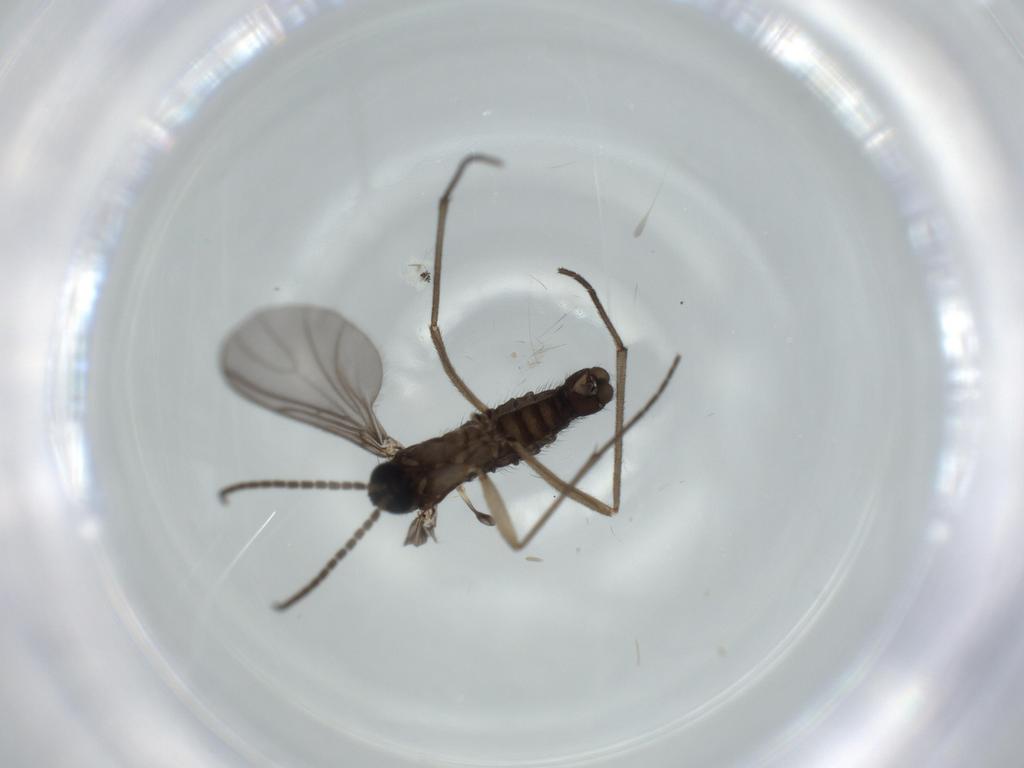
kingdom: Animalia
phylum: Arthropoda
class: Insecta
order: Diptera
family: Sciaridae
